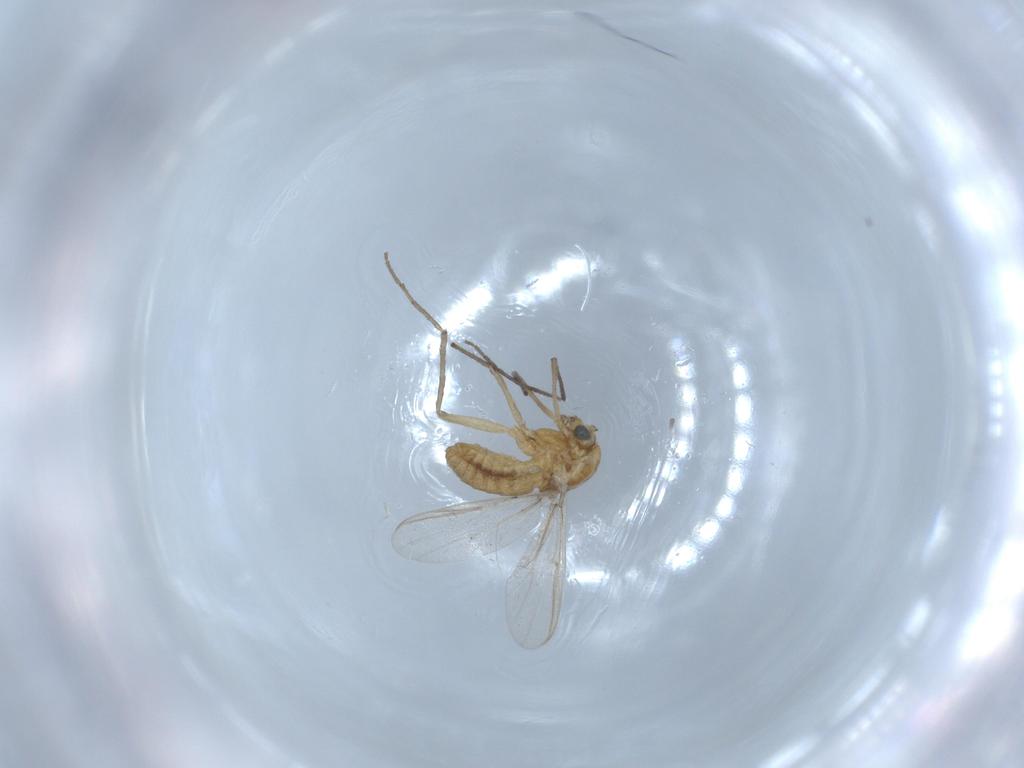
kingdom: Animalia
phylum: Arthropoda
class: Insecta
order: Diptera
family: Chironomidae
